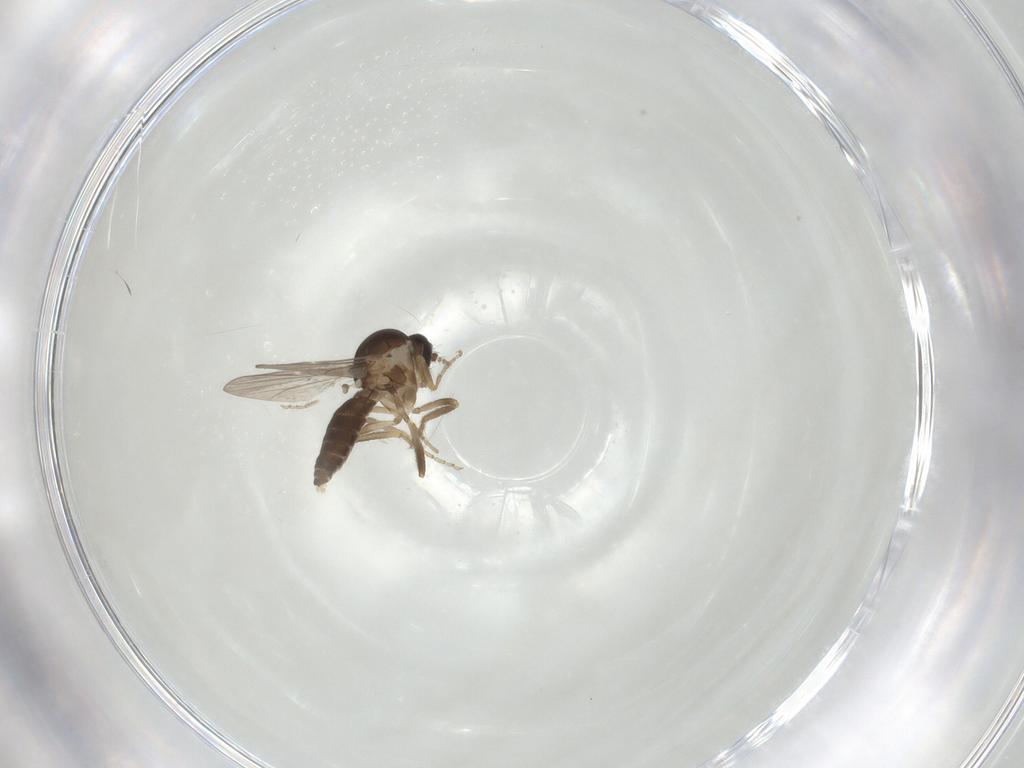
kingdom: Animalia
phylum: Arthropoda
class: Insecta
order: Diptera
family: Ceratopogonidae
